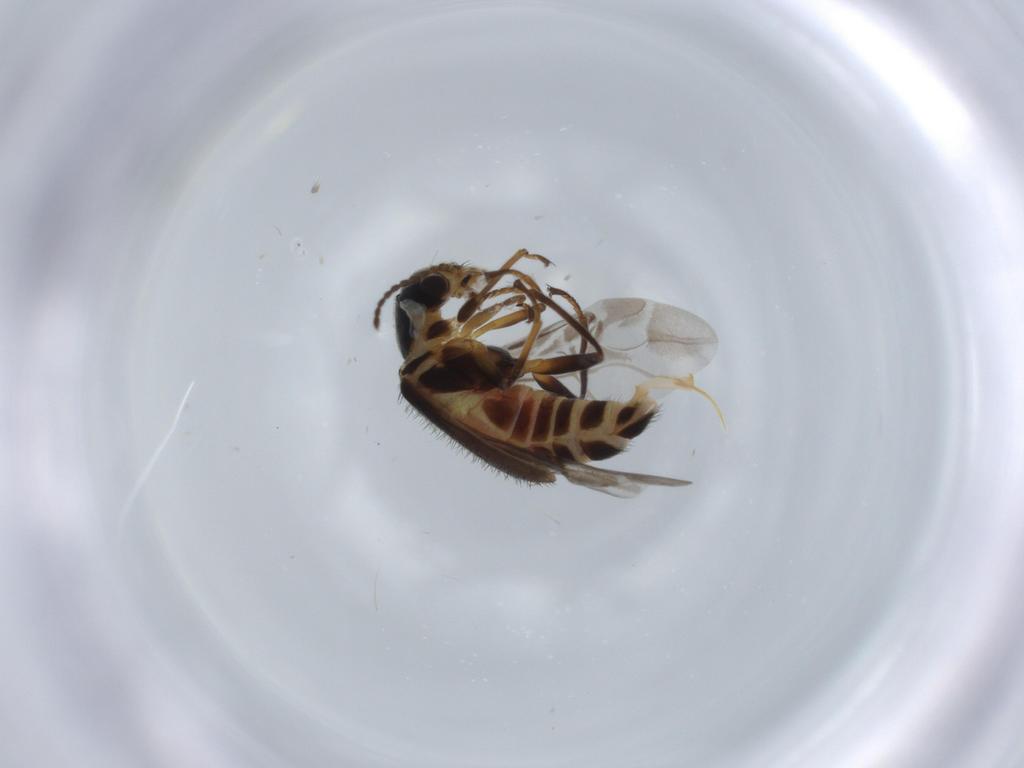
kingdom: Animalia
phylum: Arthropoda
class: Insecta
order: Coleoptera
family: Melyridae
